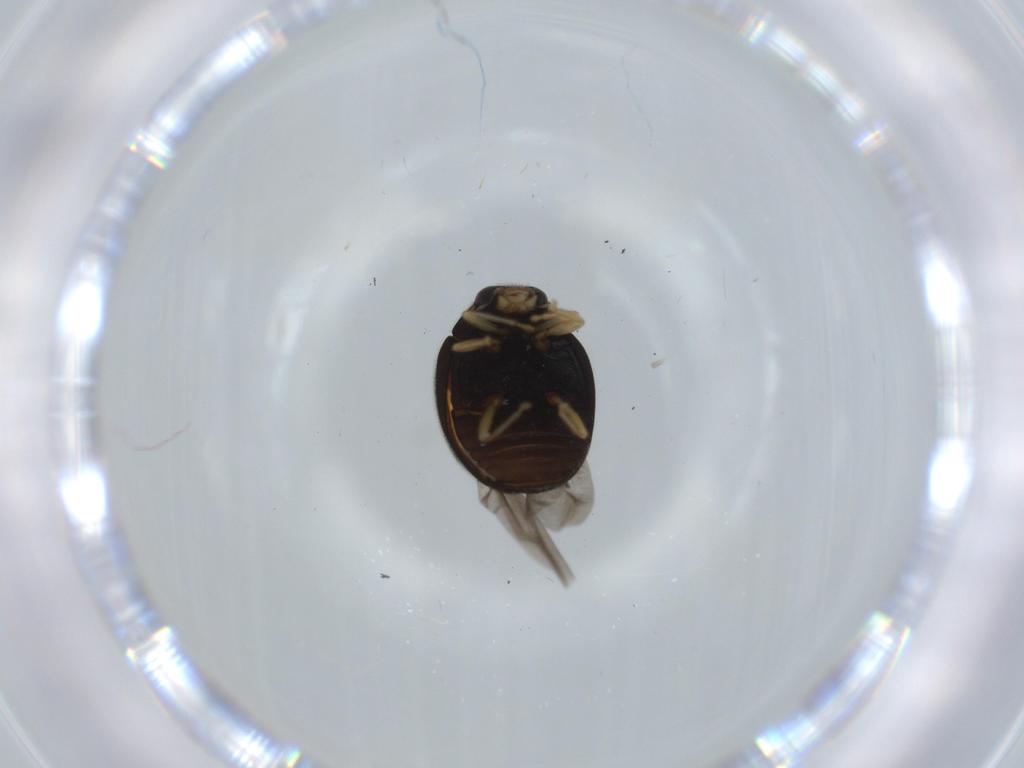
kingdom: Animalia
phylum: Arthropoda
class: Insecta
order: Coleoptera
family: Coccinellidae
